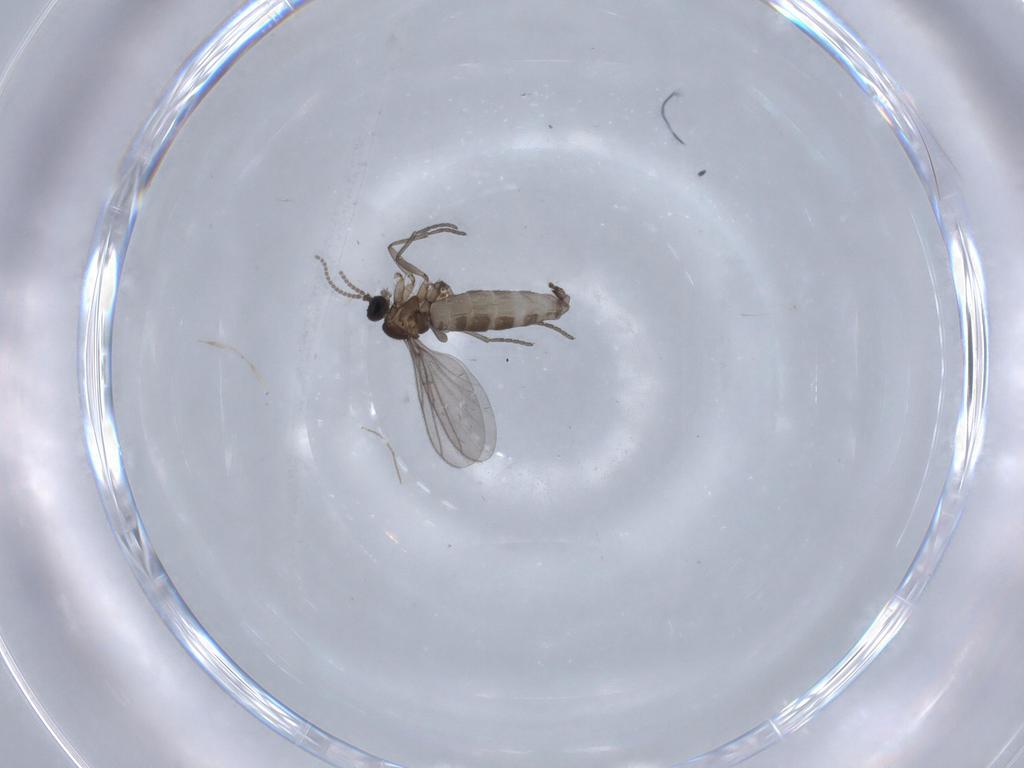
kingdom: Animalia
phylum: Arthropoda
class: Insecta
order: Diptera
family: Cecidomyiidae
